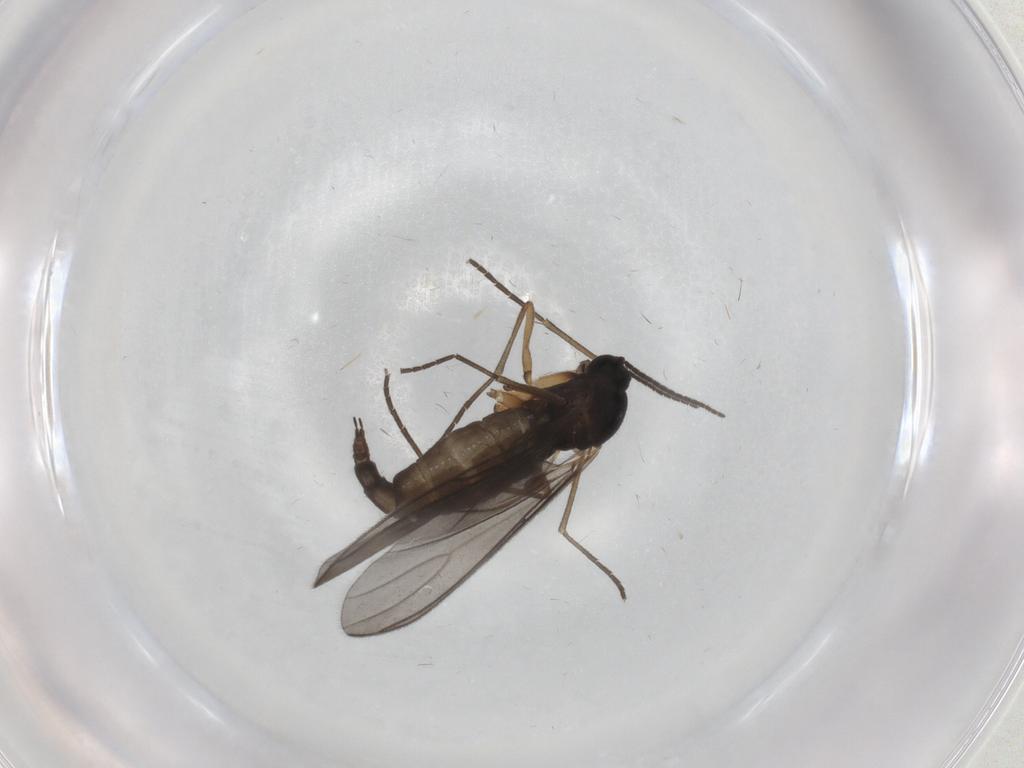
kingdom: Animalia
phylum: Arthropoda
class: Insecta
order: Diptera
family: Sciaridae
